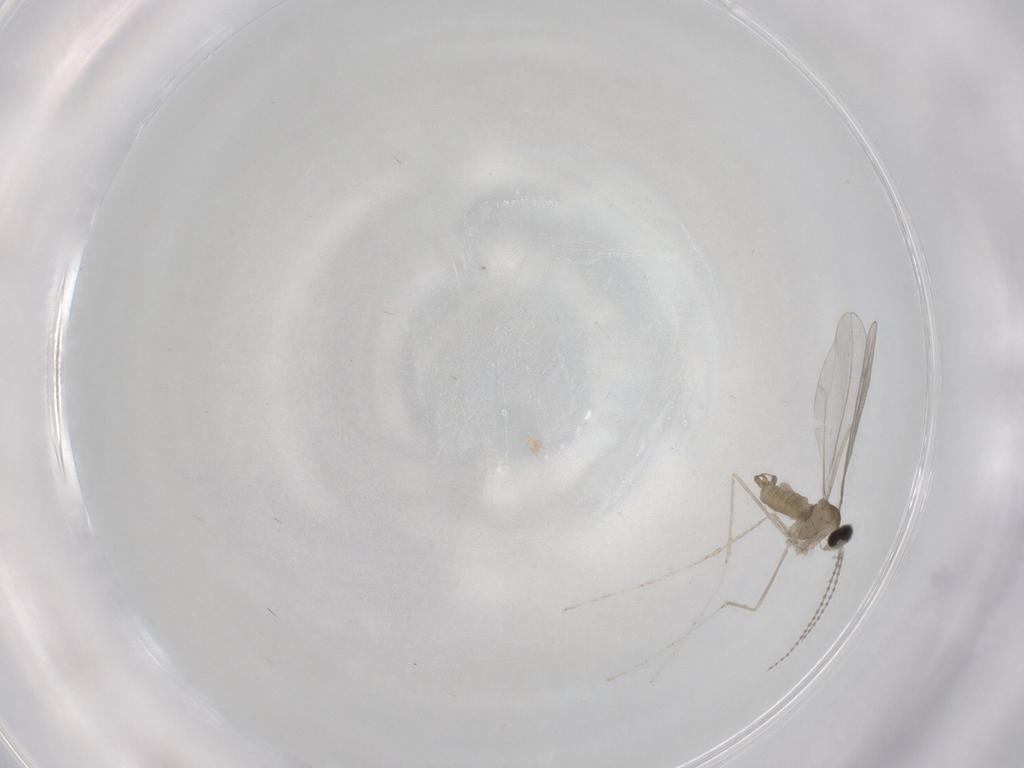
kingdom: Animalia
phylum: Arthropoda
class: Insecta
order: Diptera
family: Cecidomyiidae
